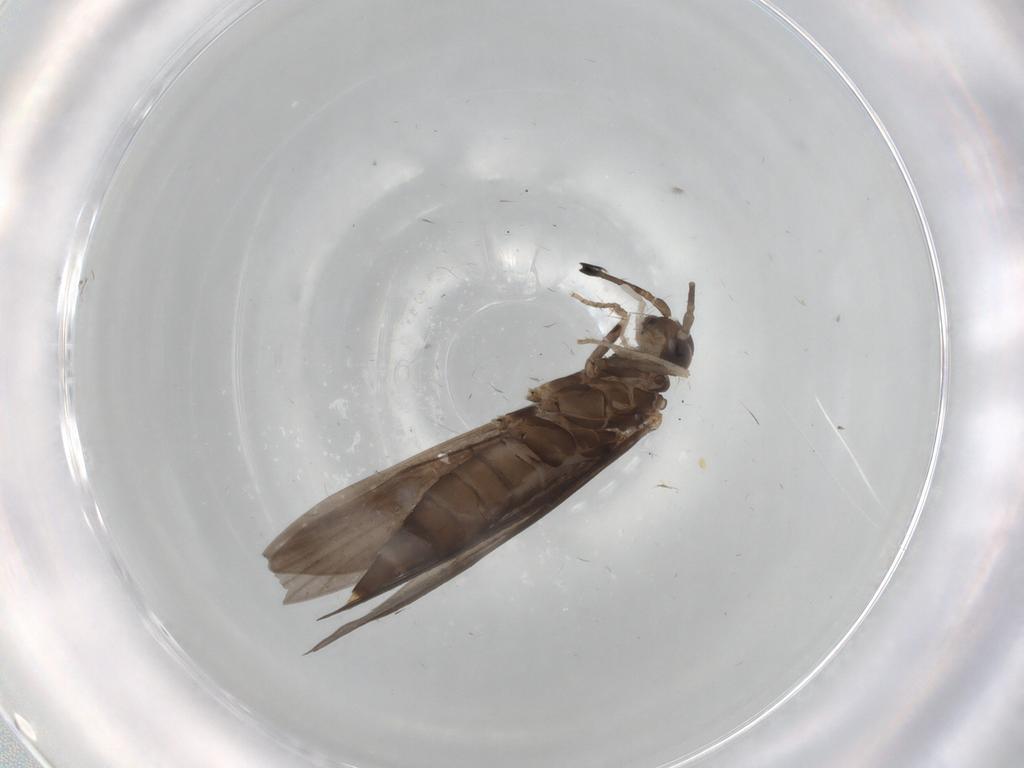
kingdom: Animalia
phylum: Arthropoda
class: Insecta
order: Trichoptera
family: Xiphocentronidae
